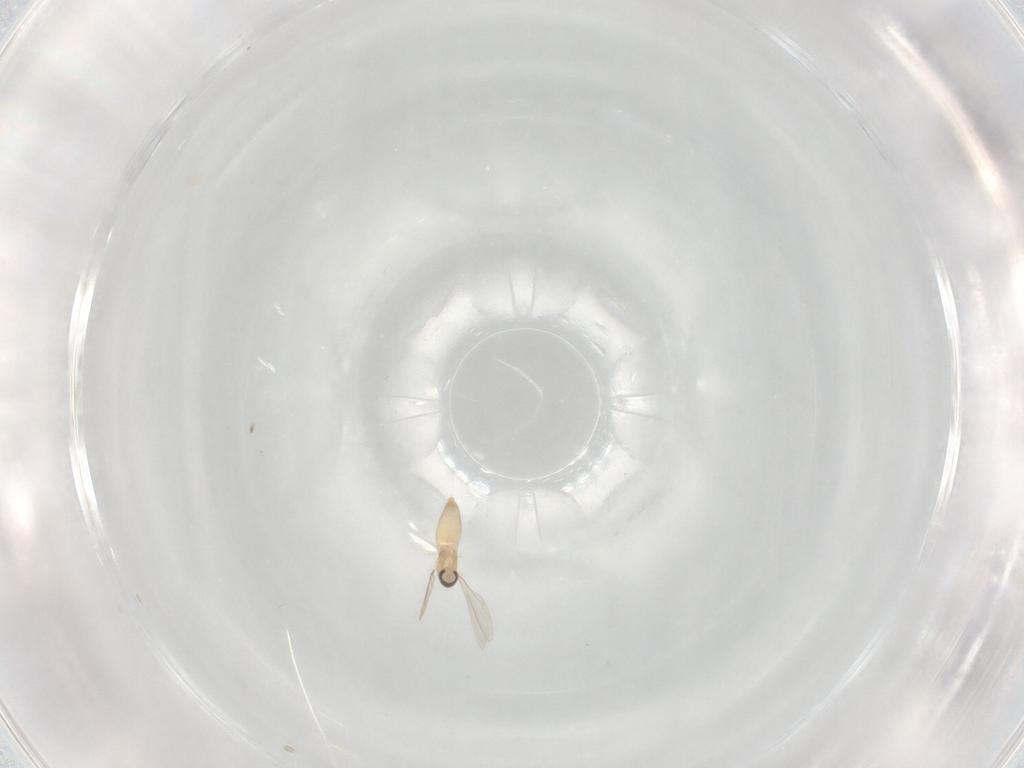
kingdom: Animalia
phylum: Arthropoda
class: Insecta
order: Diptera
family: Cecidomyiidae
